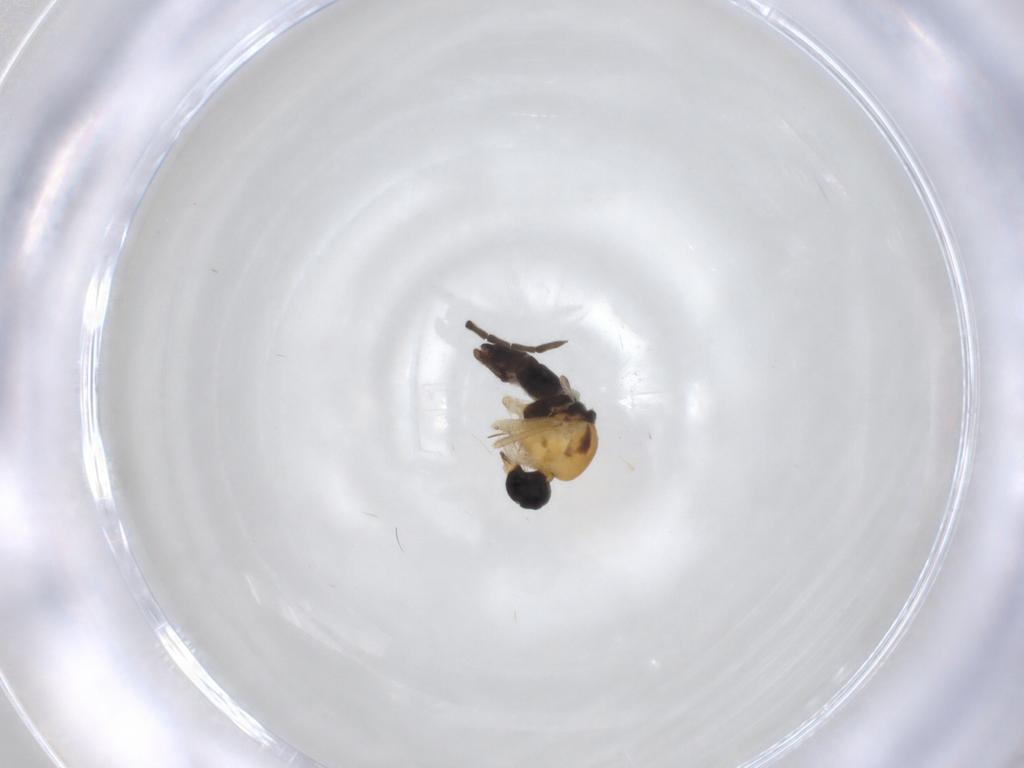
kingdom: Animalia
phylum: Arthropoda
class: Insecta
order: Diptera
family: Hybotidae
